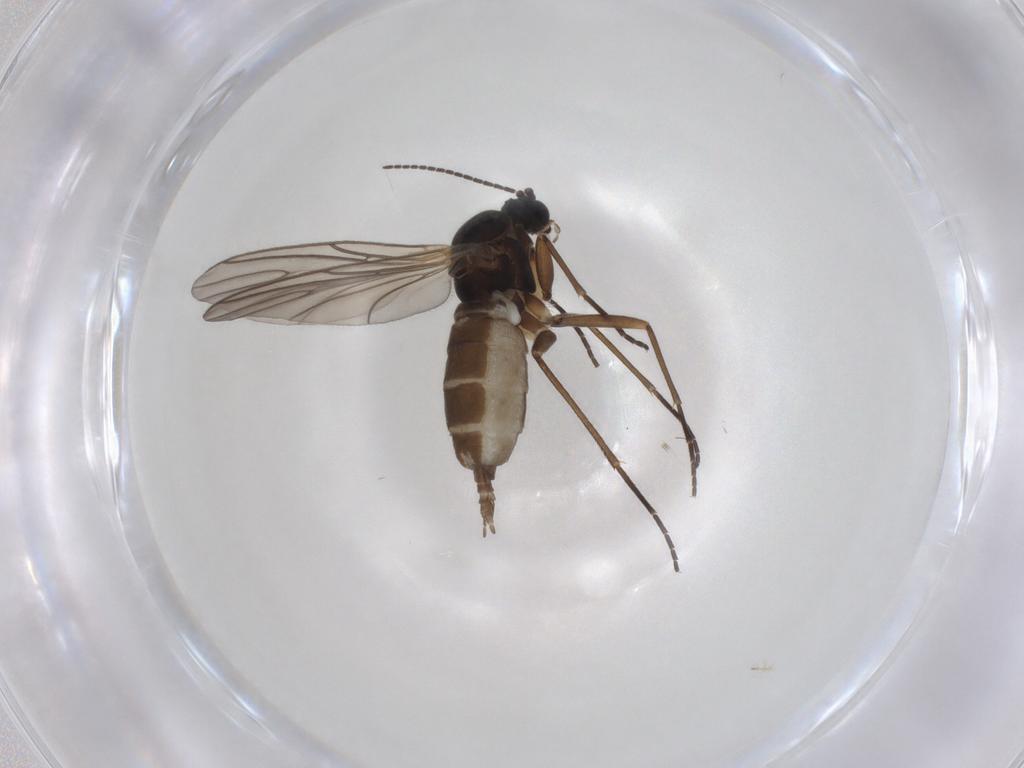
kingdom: Animalia
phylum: Arthropoda
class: Insecta
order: Diptera
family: Sciaridae
